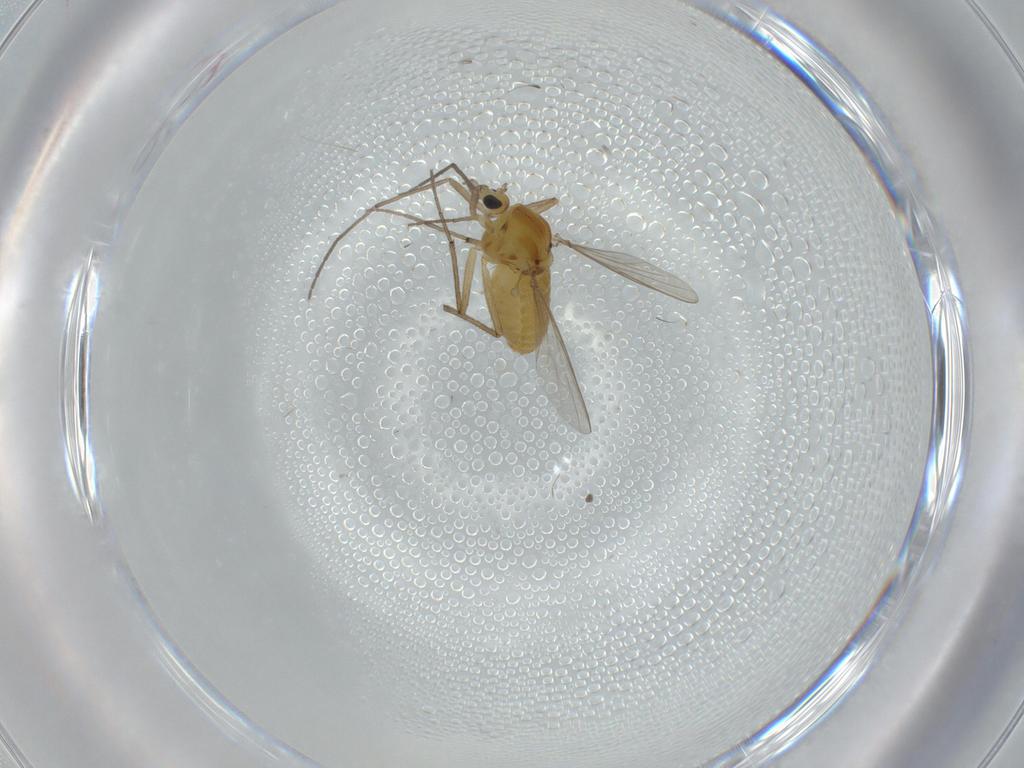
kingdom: Animalia
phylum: Arthropoda
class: Insecta
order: Diptera
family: Chironomidae
